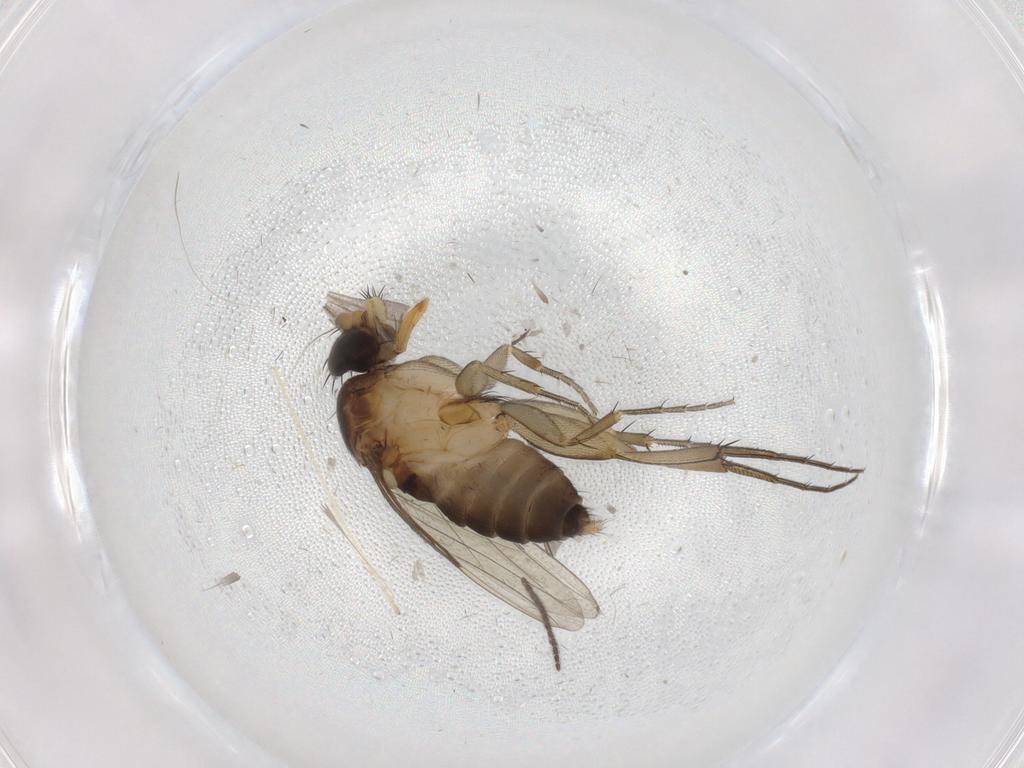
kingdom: Animalia
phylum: Arthropoda
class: Insecta
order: Diptera
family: Phoridae
